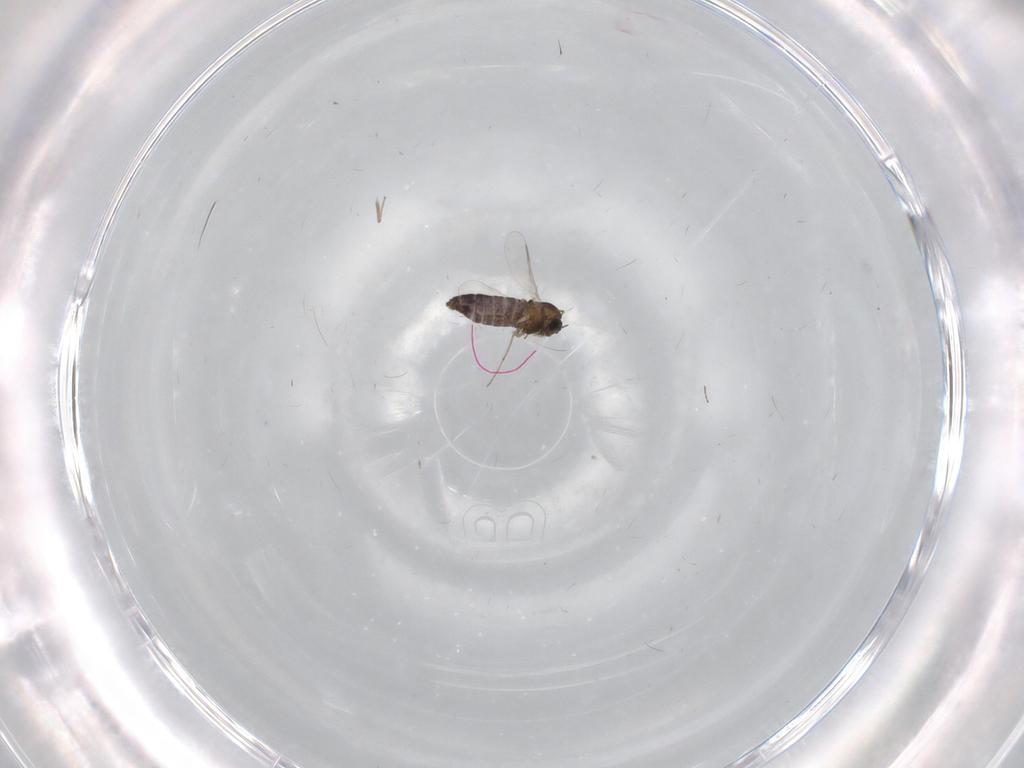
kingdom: Animalia
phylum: Arthropoda
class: Insecta
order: Diptera
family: Chironomidae
